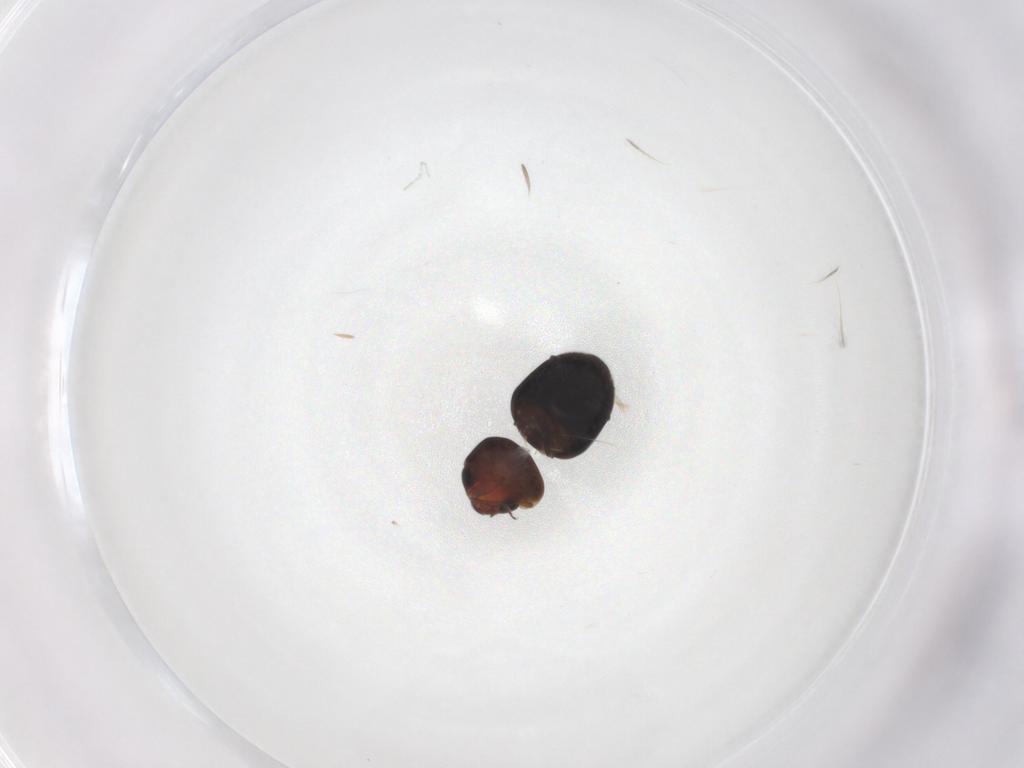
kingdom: Animalia
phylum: Arthropoda
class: Insecta
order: Coleoptera
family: Cybocephalidae
